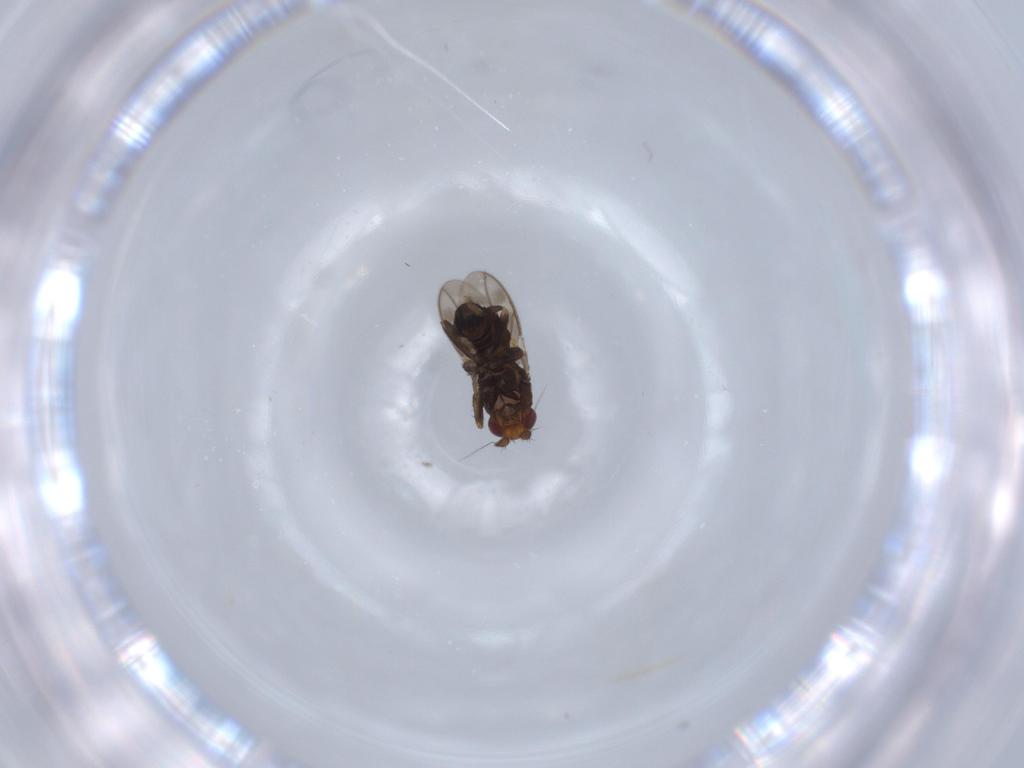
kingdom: Animalia
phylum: Arthropoda
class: Insecta
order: Diptera
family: Sphaeroceridae
